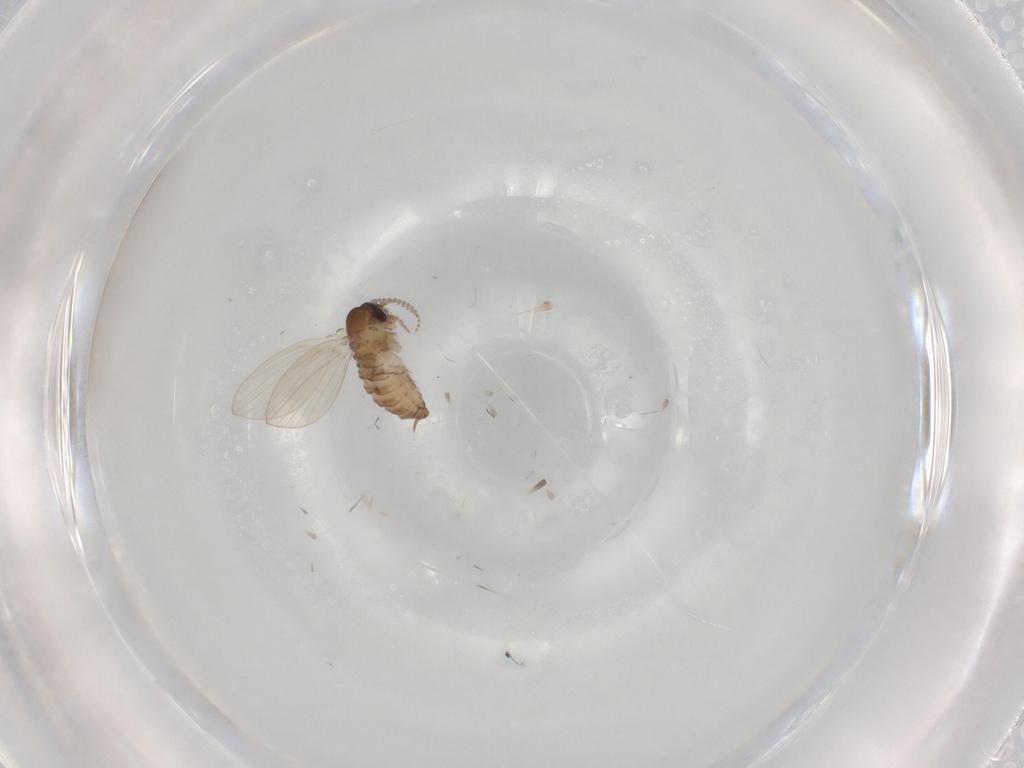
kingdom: Animalia
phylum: Arthropoda
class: Insecta
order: Diptera
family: Psychodidae
